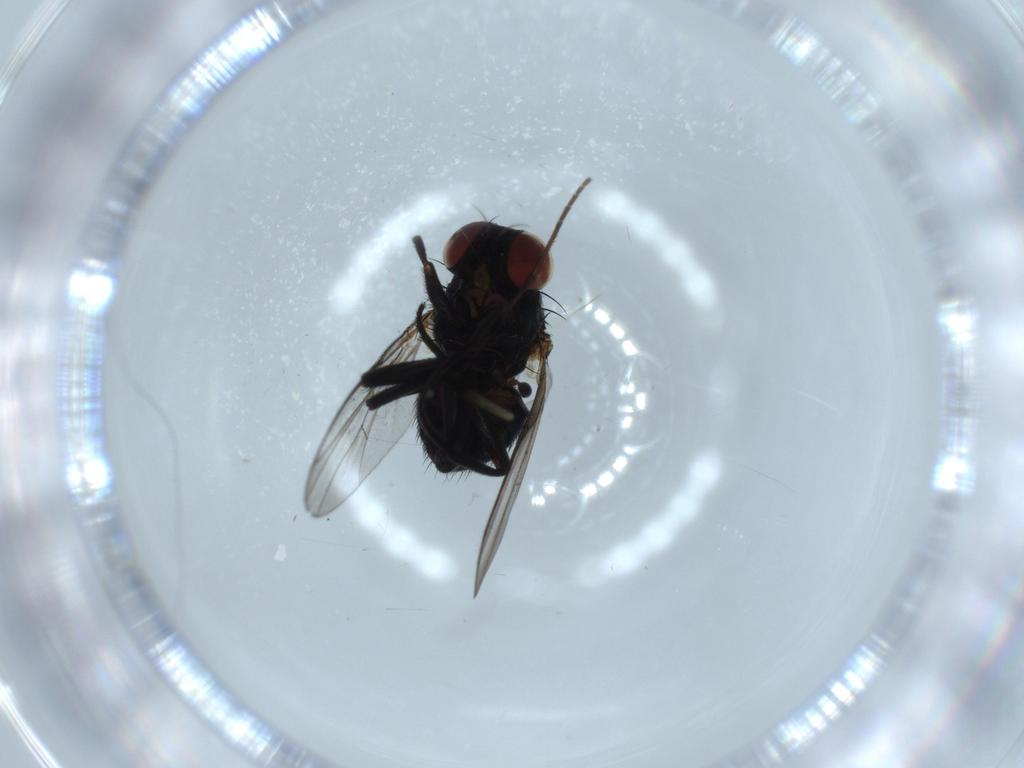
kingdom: Animalia
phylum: Arthropoda
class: Insecta
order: Diptera
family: Agromyzidae
